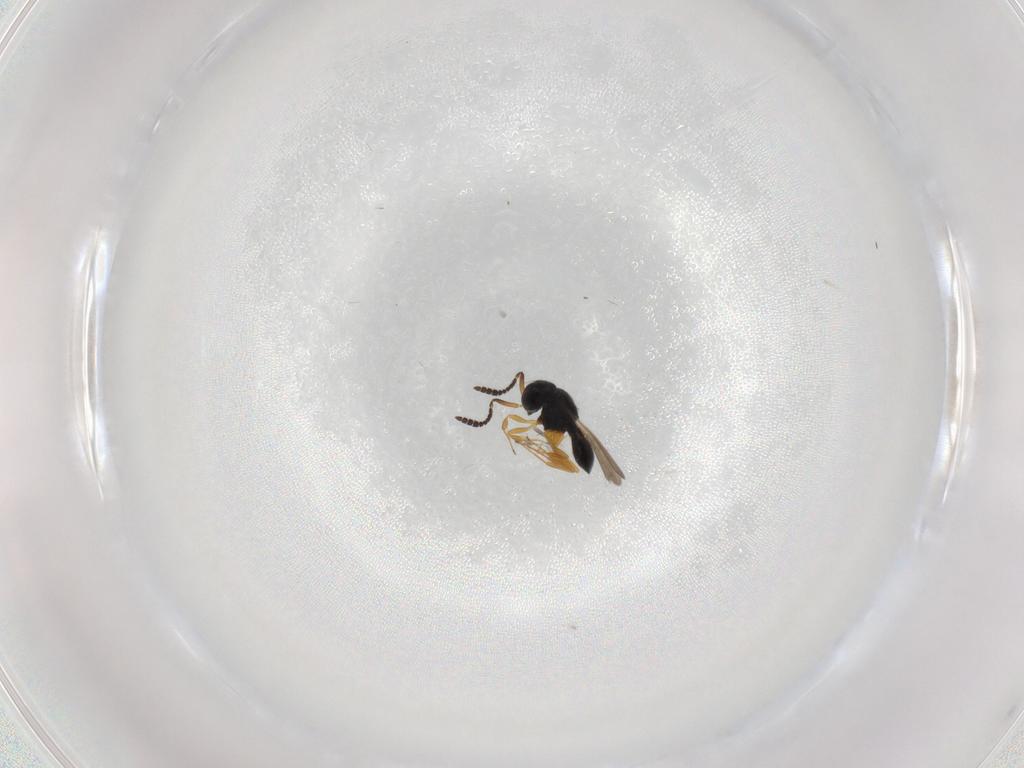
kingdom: Animalia
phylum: Arthropoda
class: Insecta
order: Hymenoptera
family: Scelionidae
